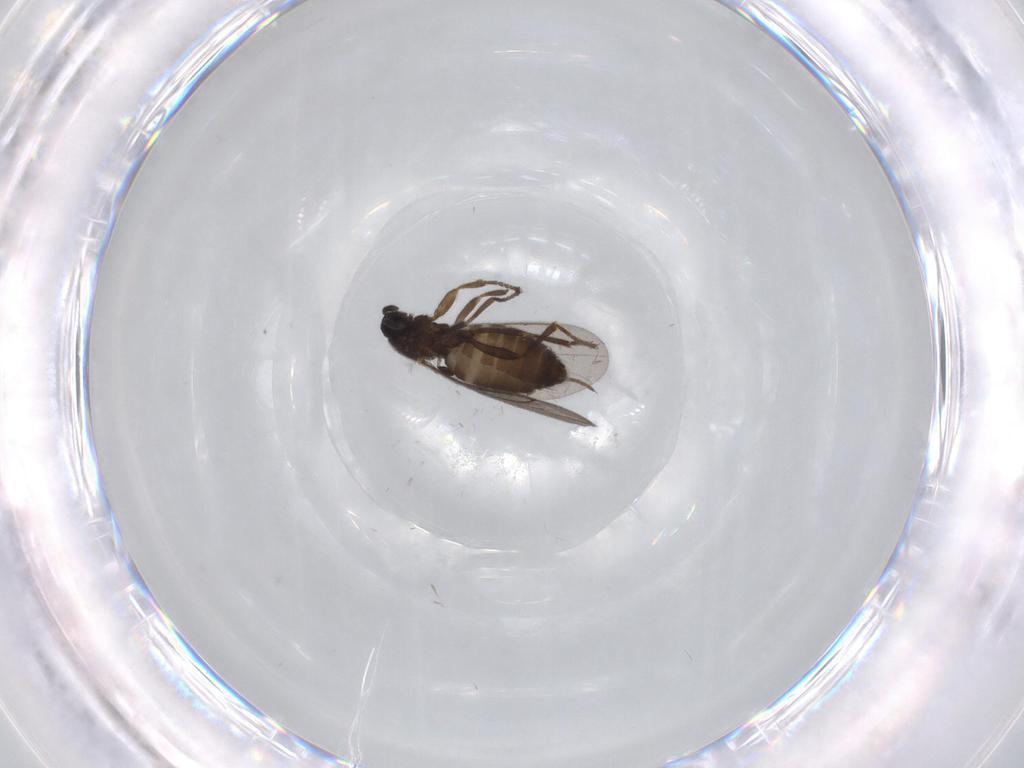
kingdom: Animalia
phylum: Arthropoda
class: Insecta
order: Diptera
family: Scatopsidae
